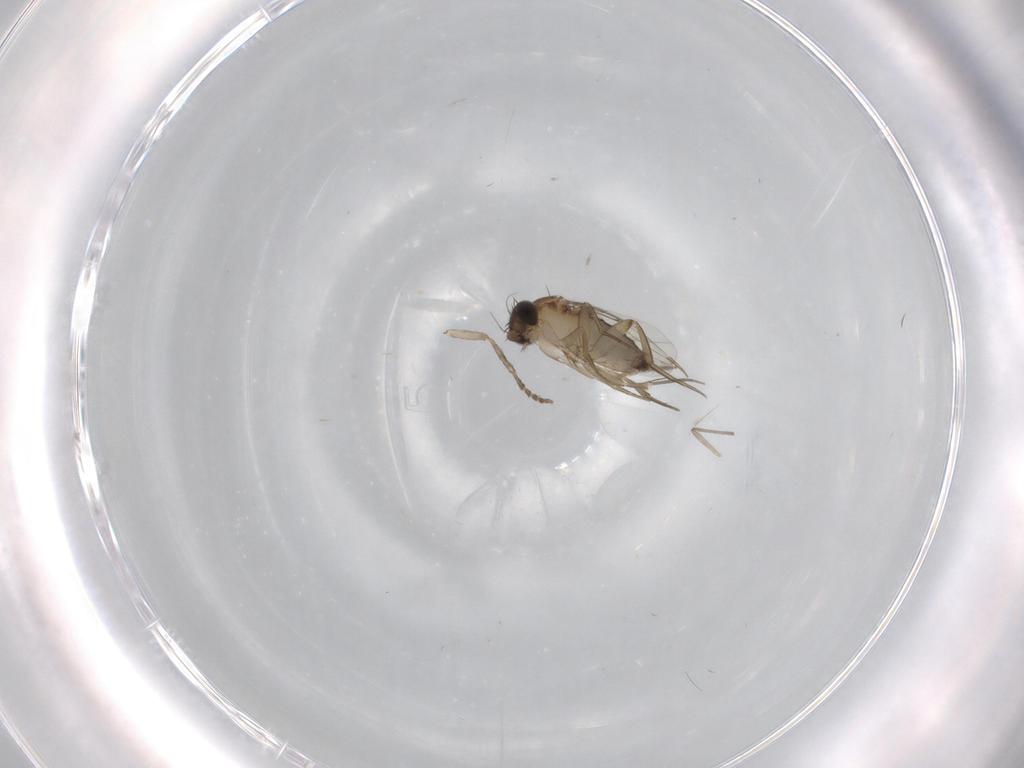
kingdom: Animalia
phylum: Arthropoda
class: Insecta
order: Diptera
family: Phoridae
